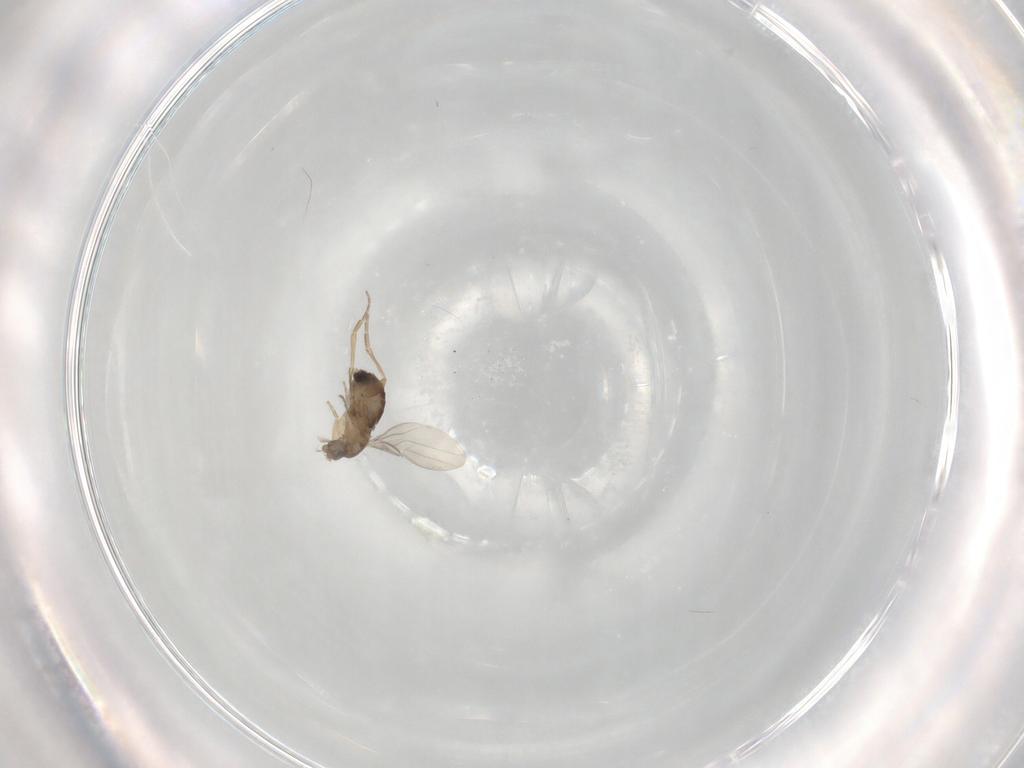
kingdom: Animalia
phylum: Arthropoda
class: Insecta
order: Diptera
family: Phoridae
